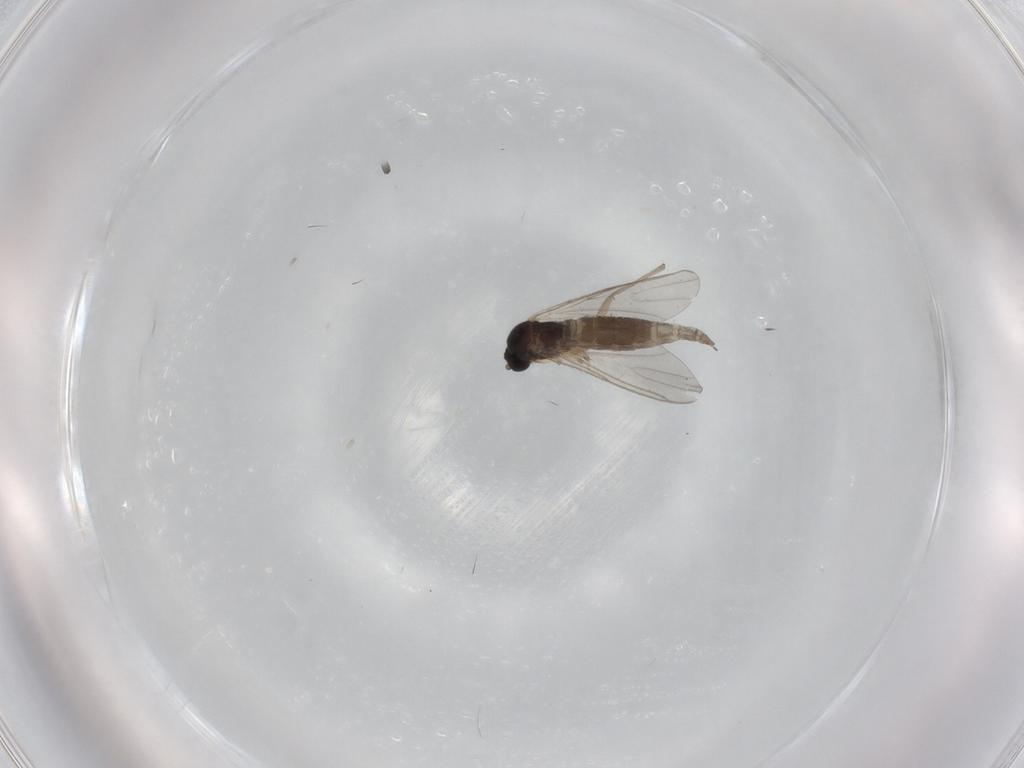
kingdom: Animalia
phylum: Arthropoda
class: Insecta
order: Diptera
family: Sciaridae
